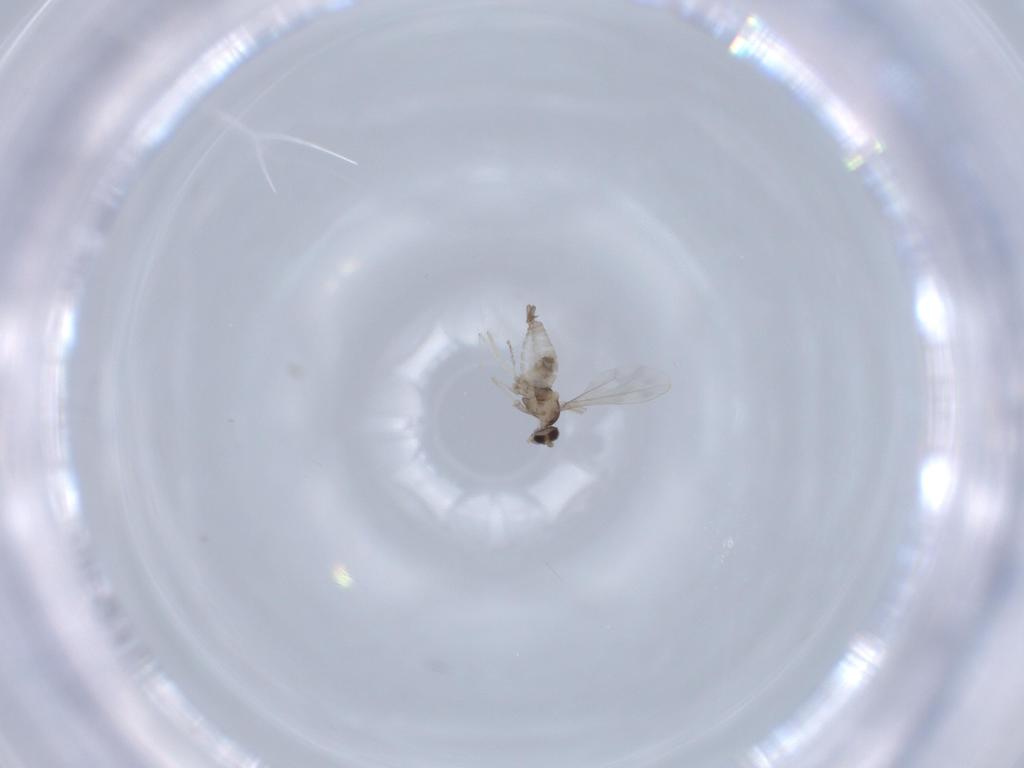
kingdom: Animalia
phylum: Arthropoda
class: Insecta
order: Diptera
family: Cecidomyiidae
